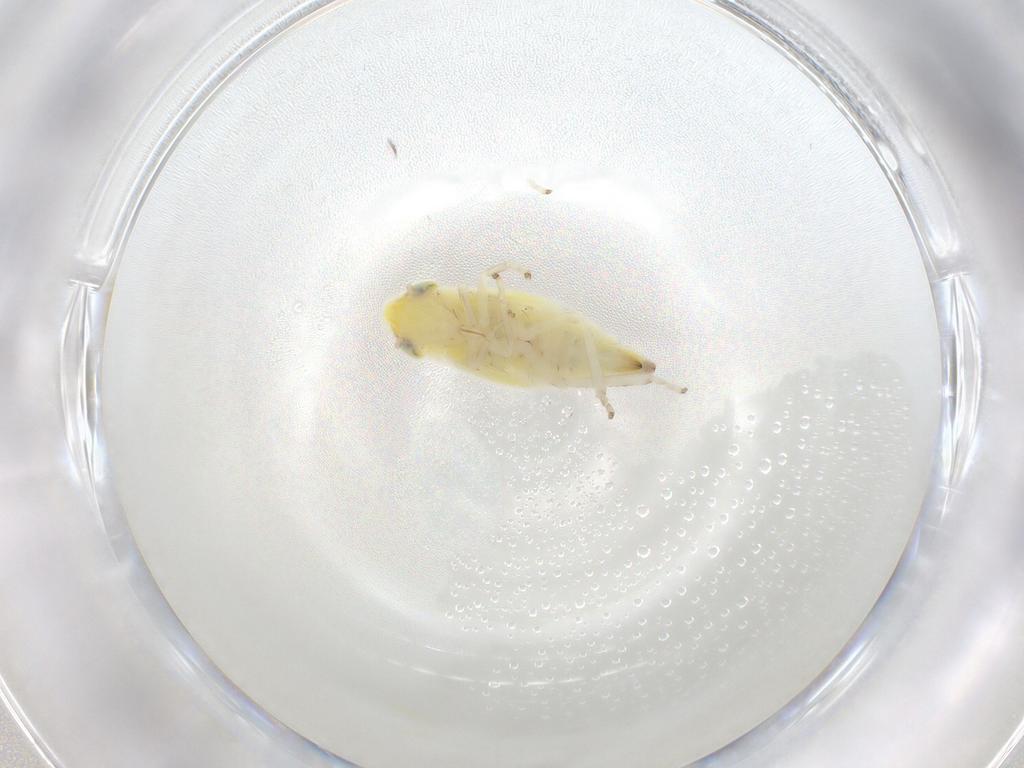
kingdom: Animalia
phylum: Arthropoda
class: Insecta
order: Hemiptera
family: Cicadellidae
